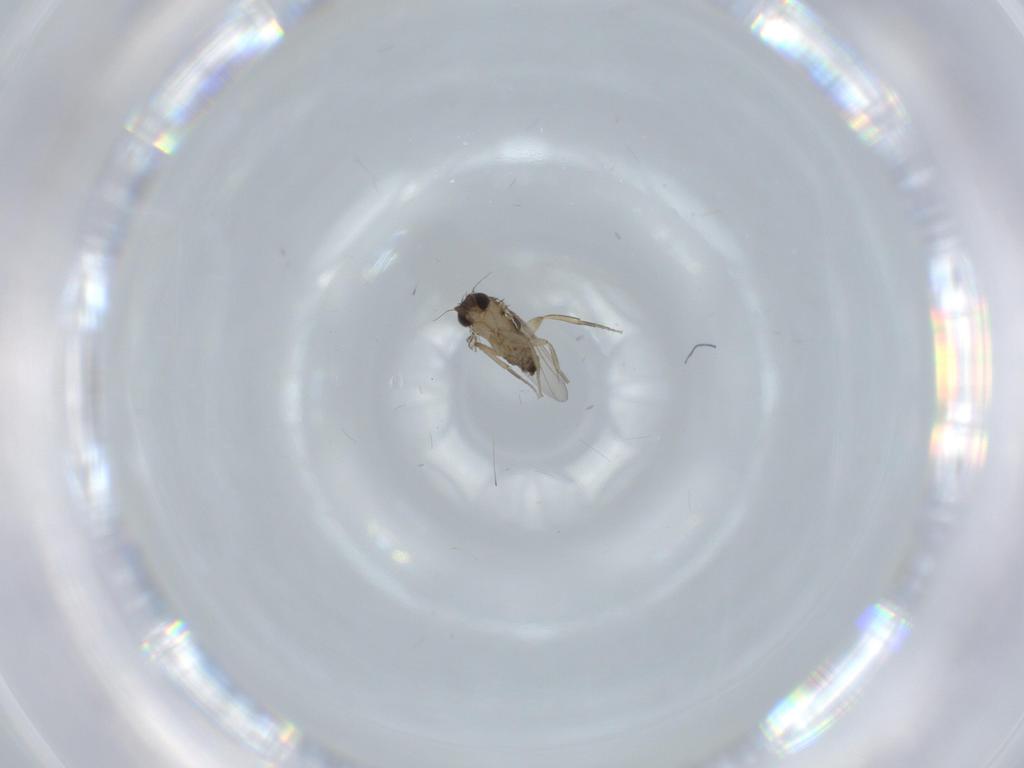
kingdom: Animalia
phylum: Arthropoda
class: Insecta
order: Diptera
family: Phoridae
